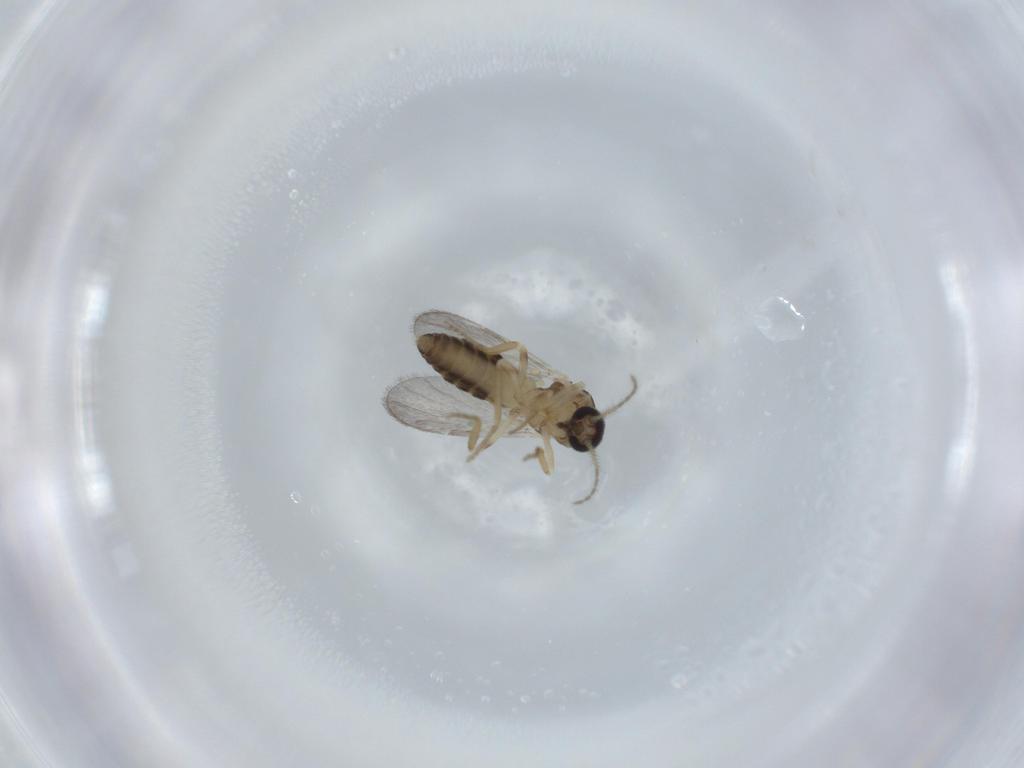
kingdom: Animalia
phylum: Arthropoda
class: Insecta
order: Diptera
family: Ceratopogonidae
